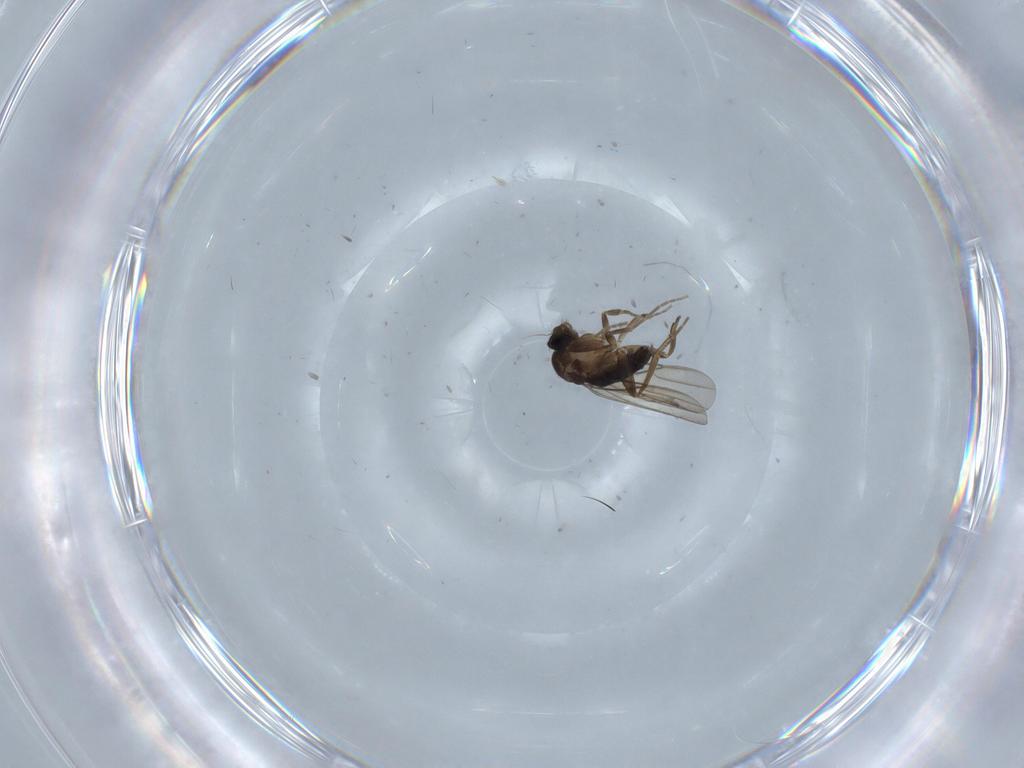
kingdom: Animalia
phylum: Arthropoda
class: Insecta
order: Diptera
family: Phoridae
